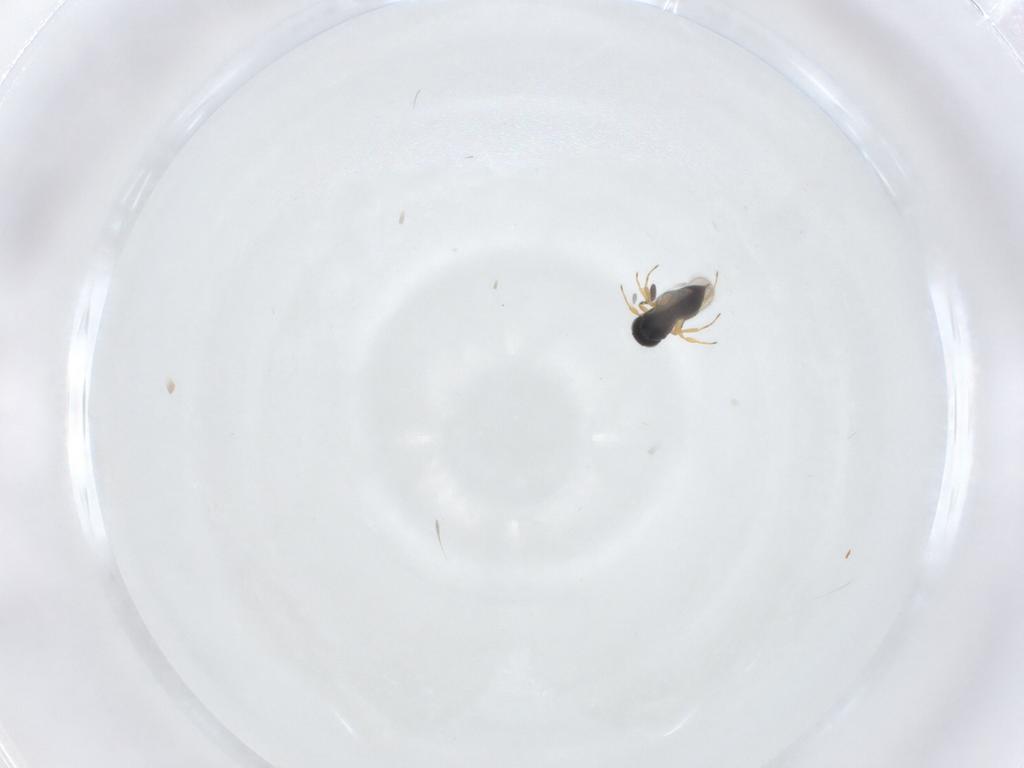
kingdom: Animalia
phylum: Arthropoda
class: Insecta
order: Hymenoptera
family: Scelionidae
